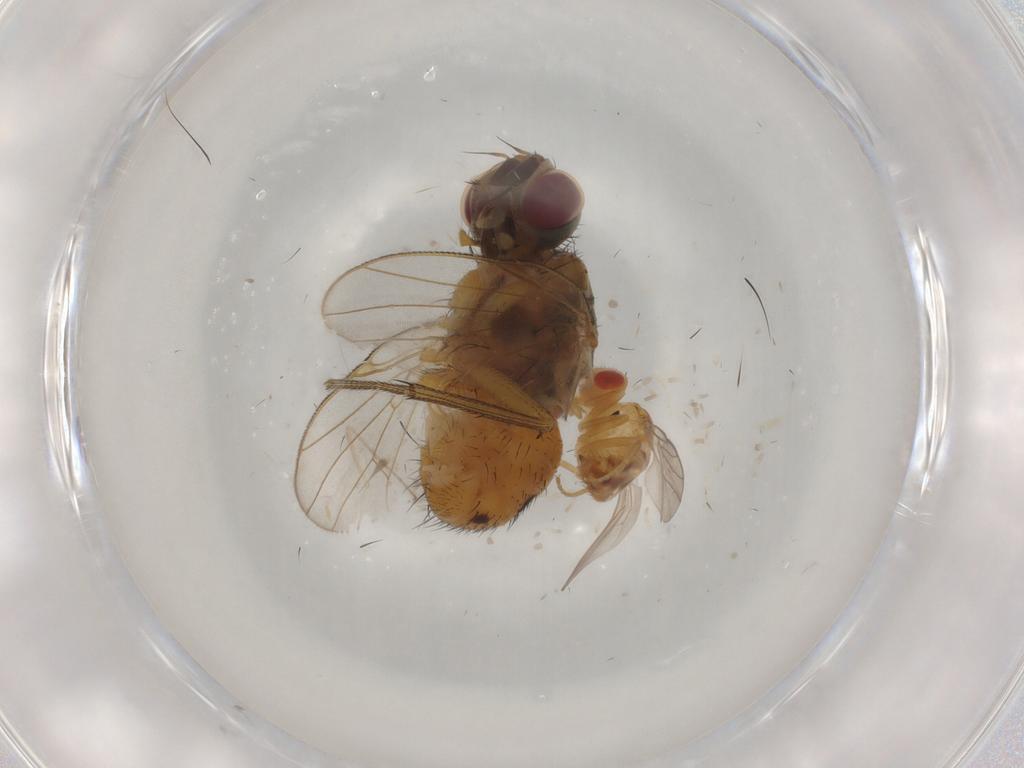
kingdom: Animalia
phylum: Arthropoda
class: Insecta
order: Diptera
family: Muscidae
